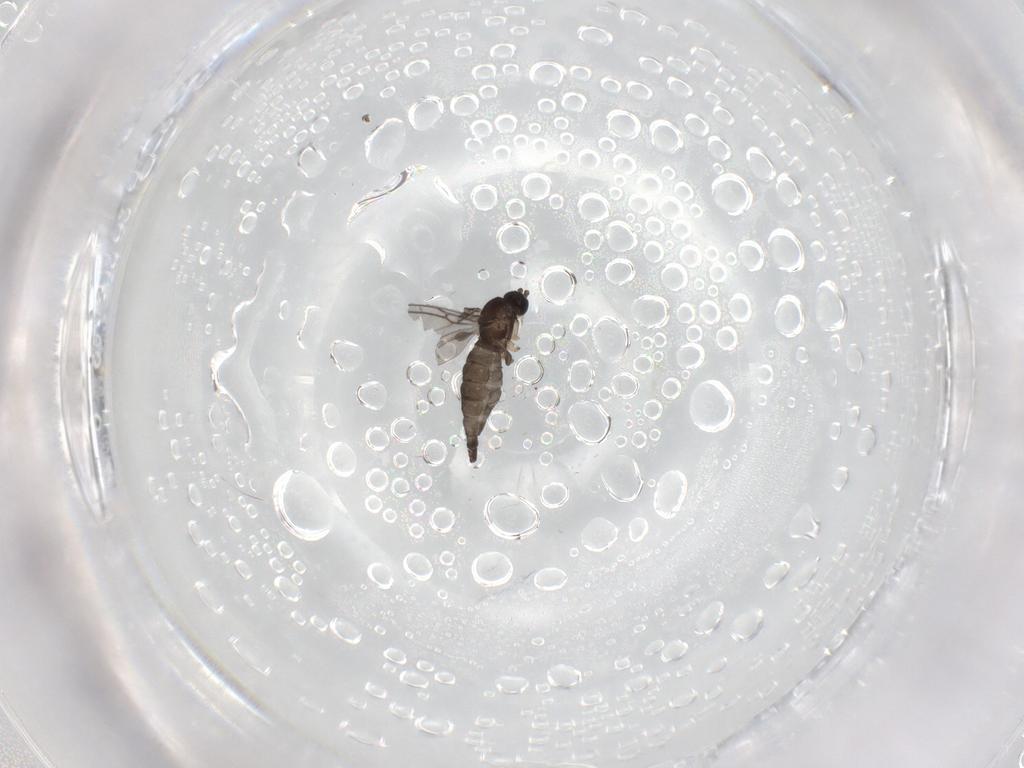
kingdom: Animalia
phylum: Arthropoda
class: Insecta
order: Diptera
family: Sciaridae
